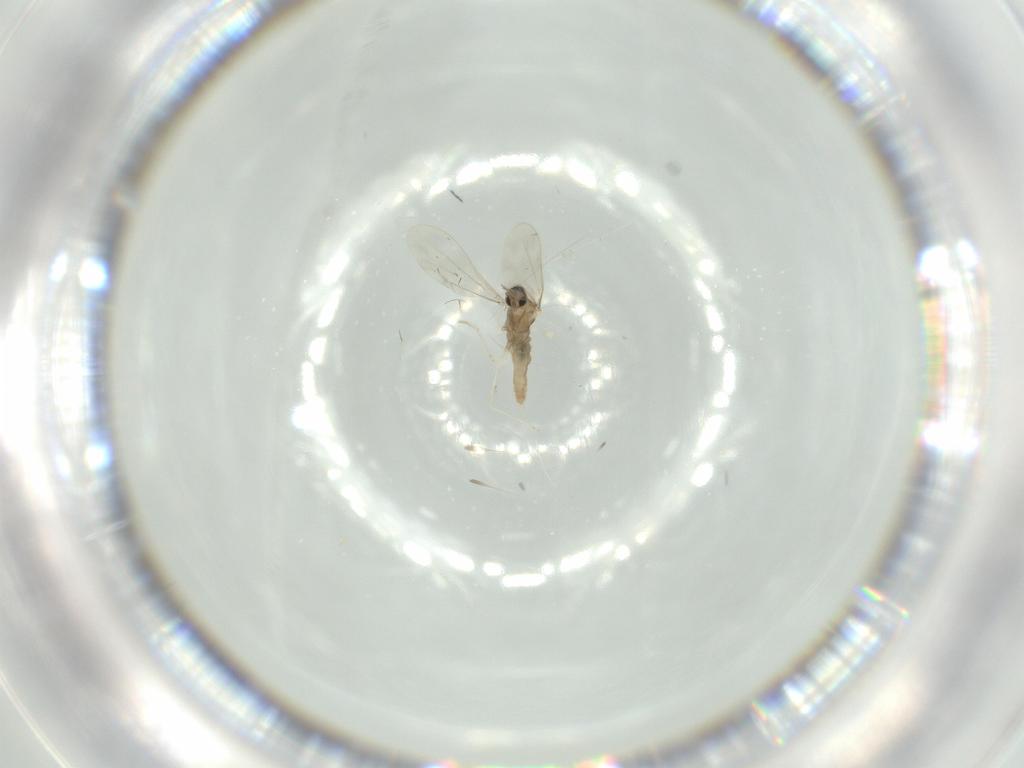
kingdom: Animalia
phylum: Arthropoda
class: Insecta
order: Diptera
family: Cecidomyiidae
